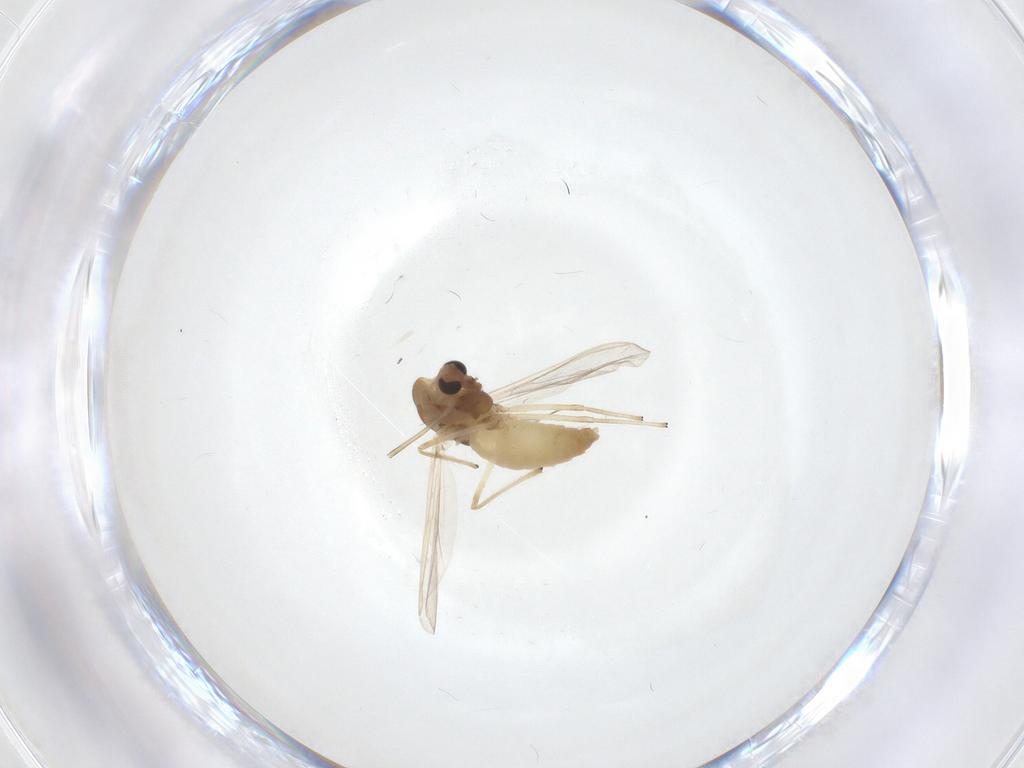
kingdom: Animalia
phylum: Arthropoda
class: Insecta
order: Diptera
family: Chironomidae
